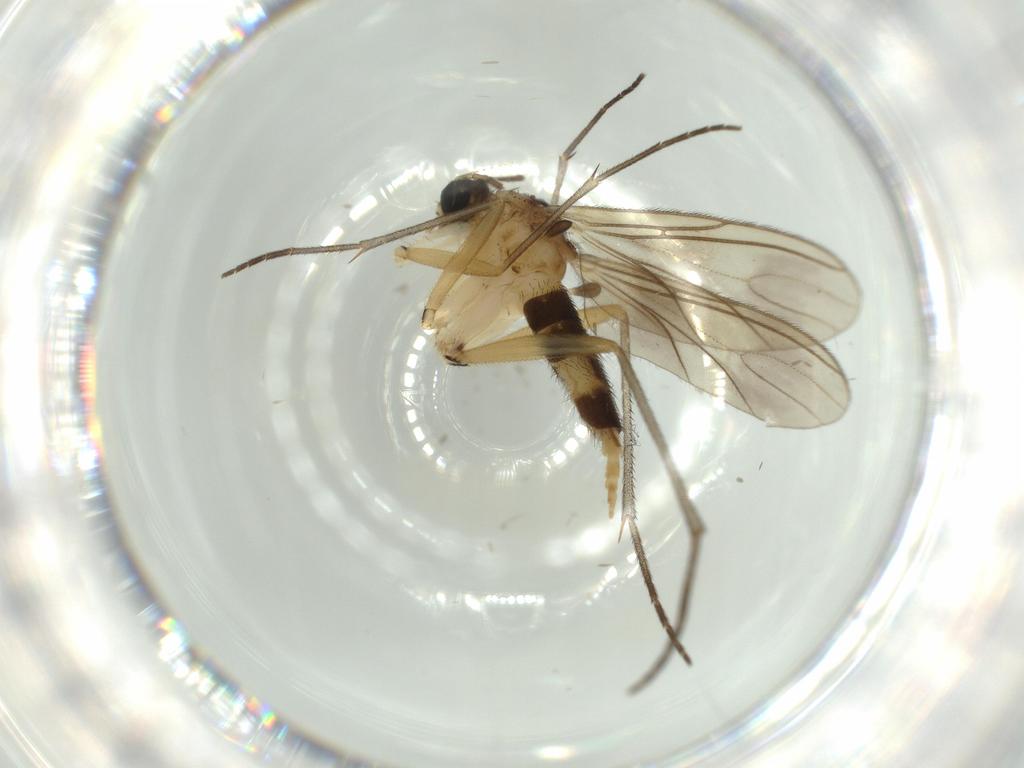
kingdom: Animalia
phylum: Arthropoda
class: Insecta
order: Diptera
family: Sciaridae
